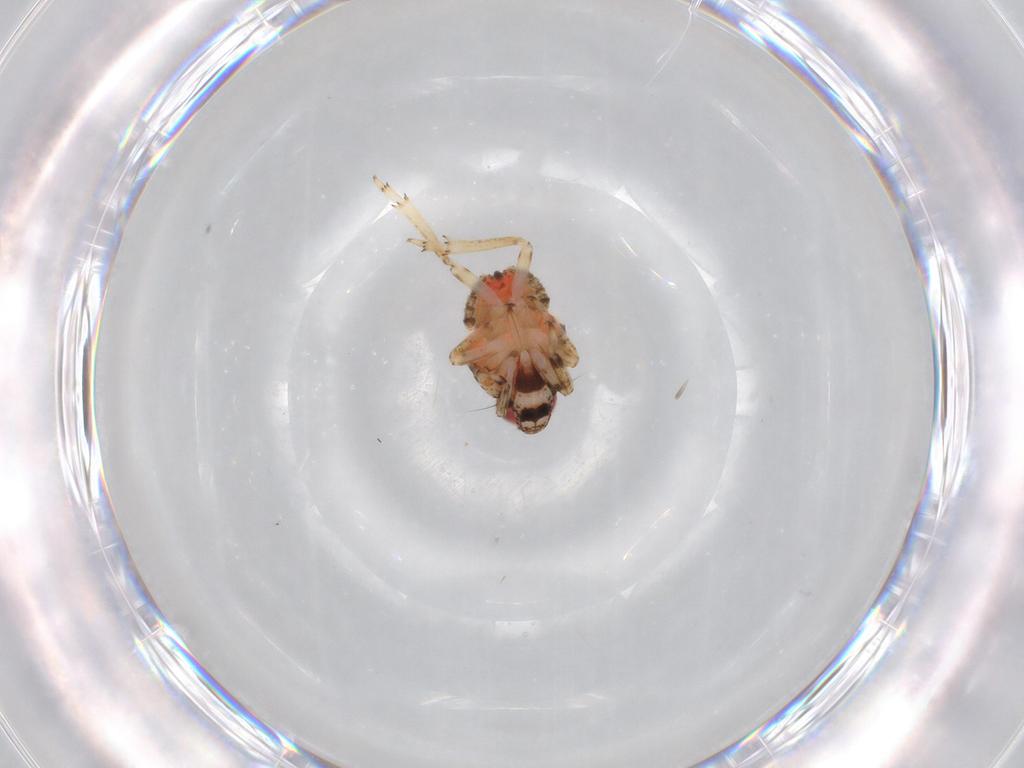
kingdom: Animalia
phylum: Arthropoda
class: Insecta
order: Hemiptera
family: Issidae
